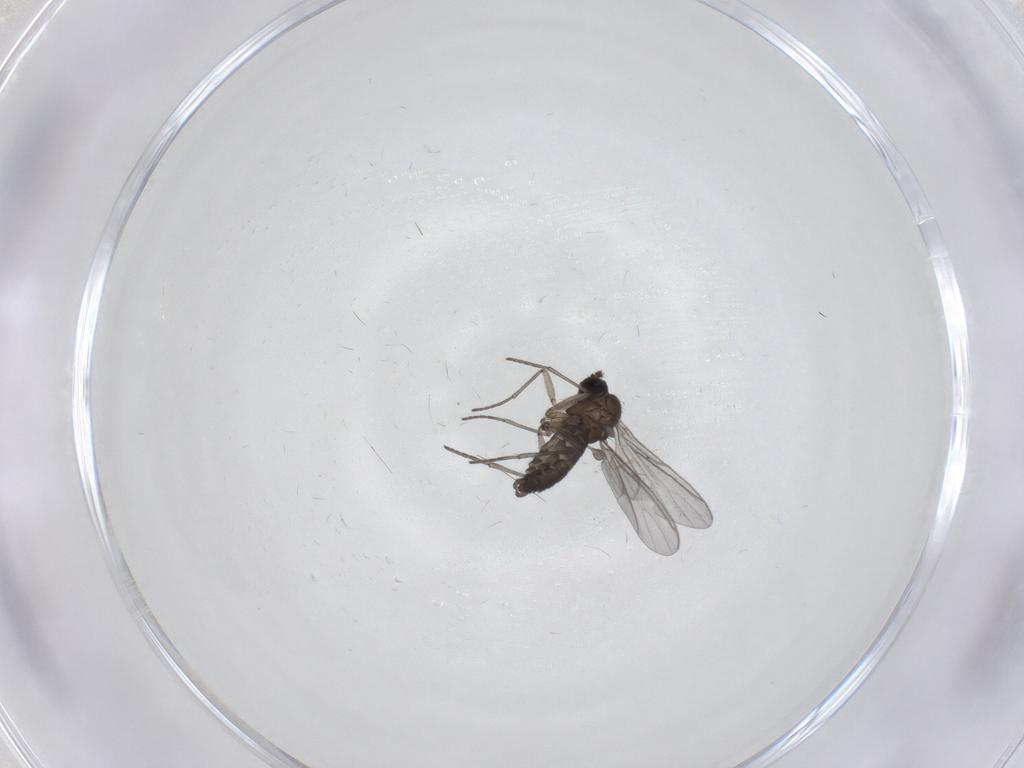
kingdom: Animalia
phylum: Arthropoda
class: Insecta
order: Diptera
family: Psychodidae
